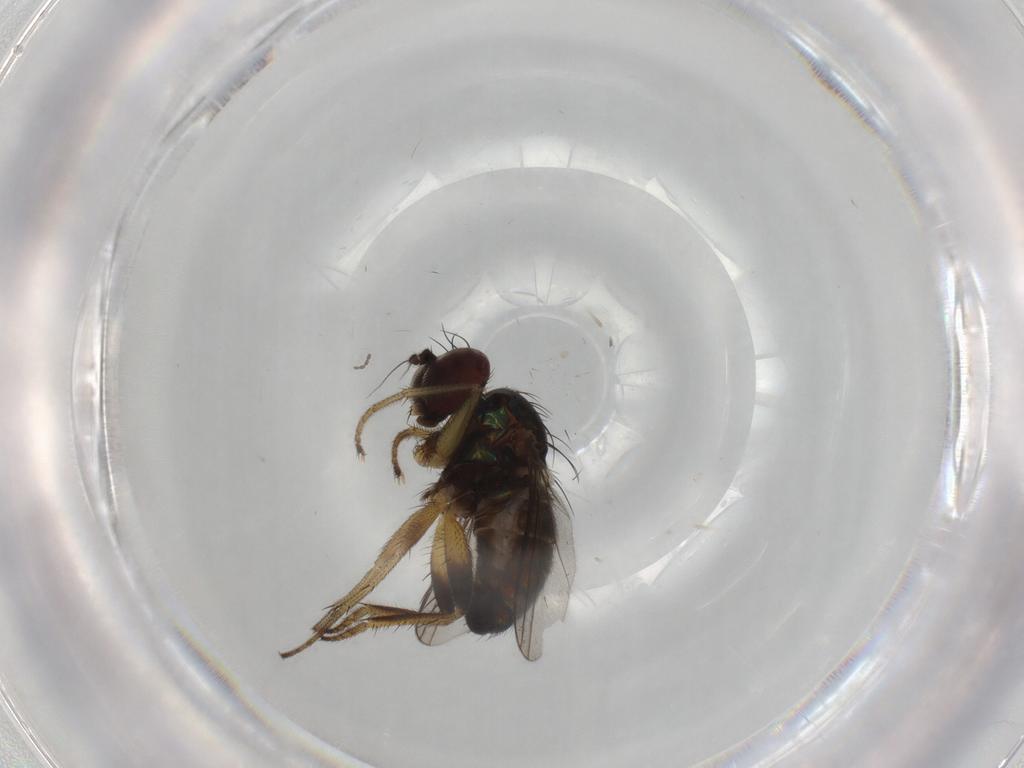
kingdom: Animalia
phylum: Arthropoda
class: Insecta
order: Diptera
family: Chironomidae
